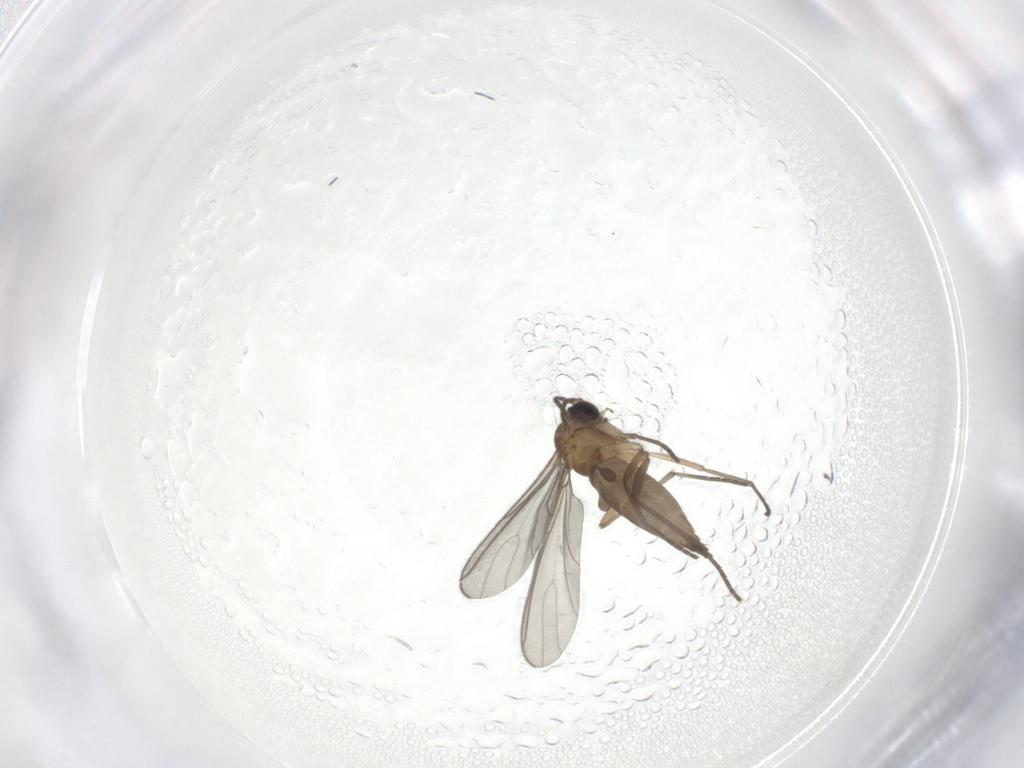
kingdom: Animalia
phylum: Arthropoda
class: Insecta
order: Diptera
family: Sciaridae
